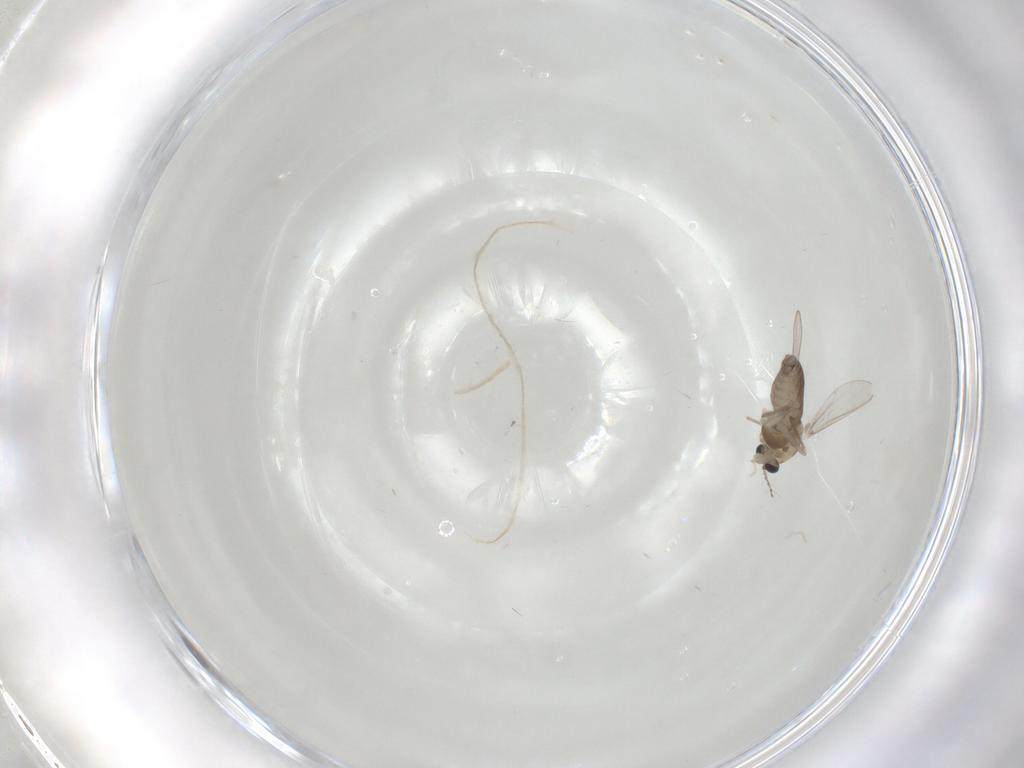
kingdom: Animalia
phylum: Arthropoda
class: Insecta
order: Diptera
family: Chironomidae
